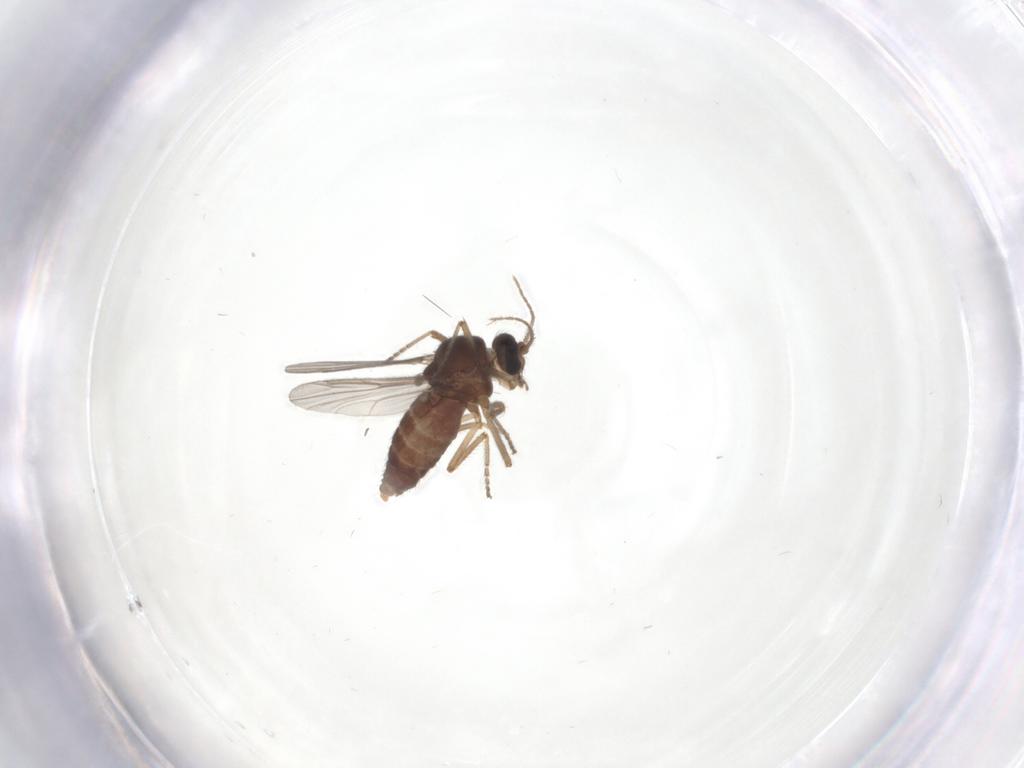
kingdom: Animalia
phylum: Arthropoda
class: Insecta
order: Diptera
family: Ceratopogonidae
